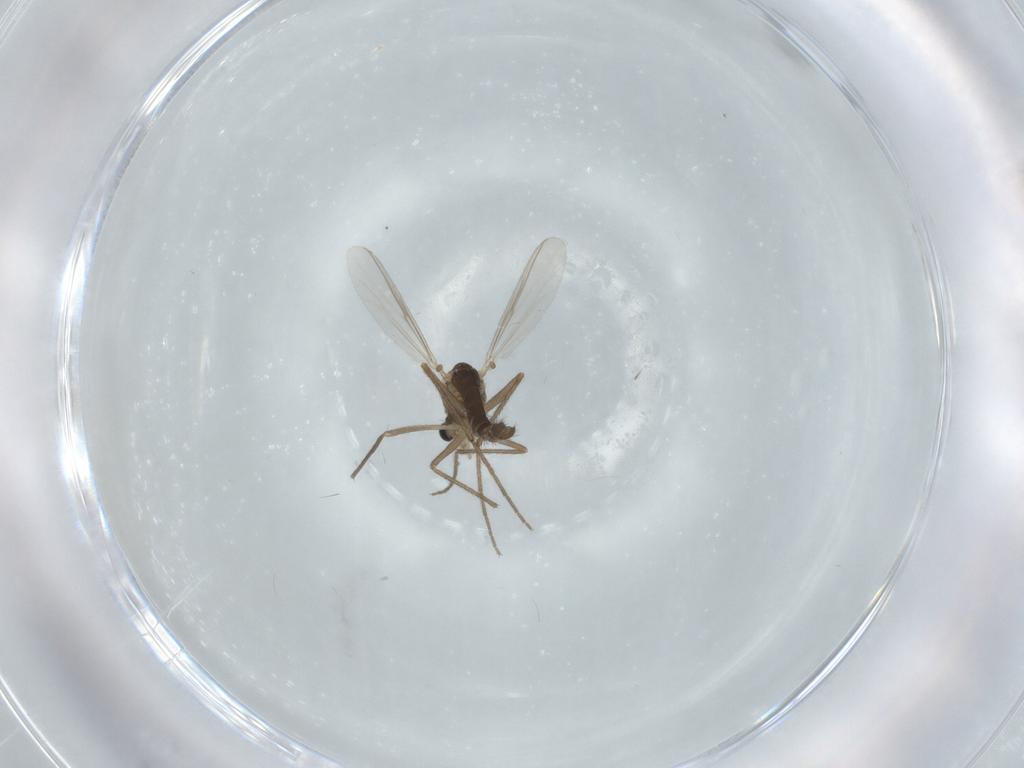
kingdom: Animalia
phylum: Arthropoda
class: Insecta
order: Diptera
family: Chironomidae
